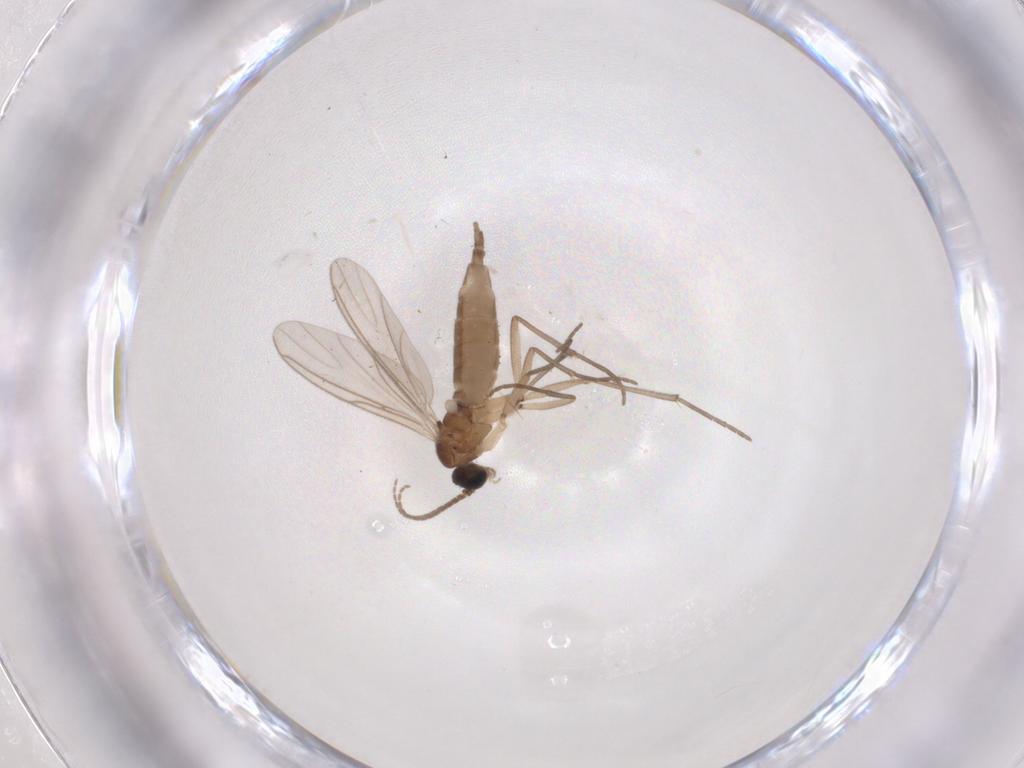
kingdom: Animalia
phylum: Arthropoda
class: Insecta
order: Diptera
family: Sciaridae
